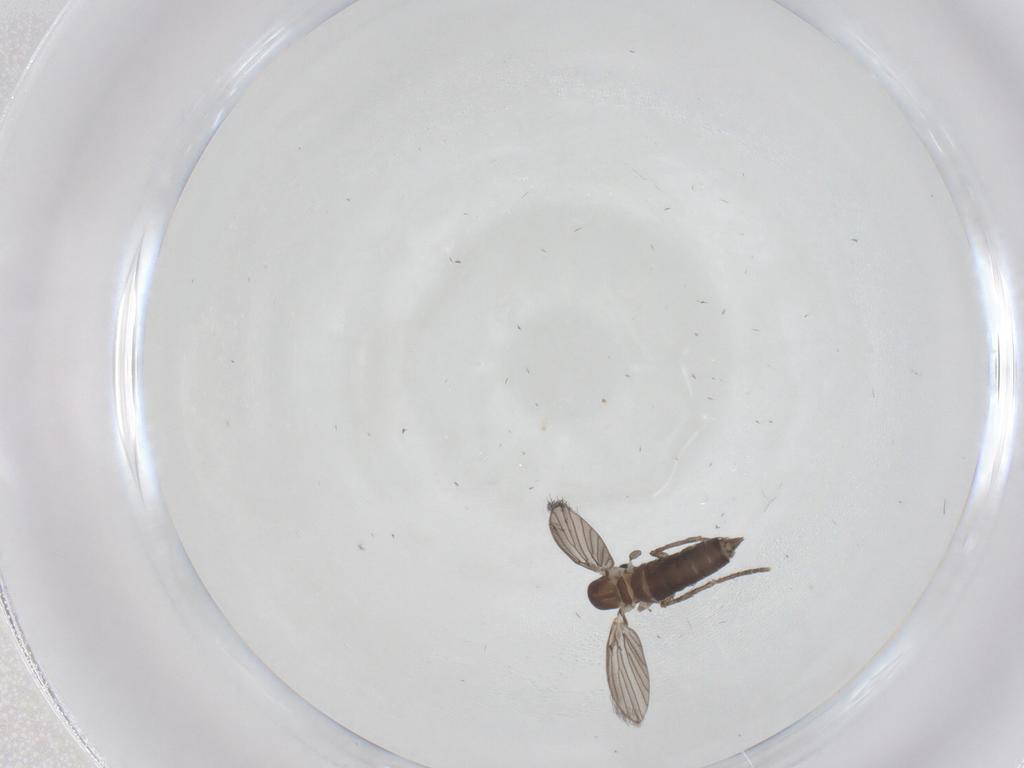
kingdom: Animalia
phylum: Arthropoda
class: Insecta
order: Diptera
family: Psychodidae
